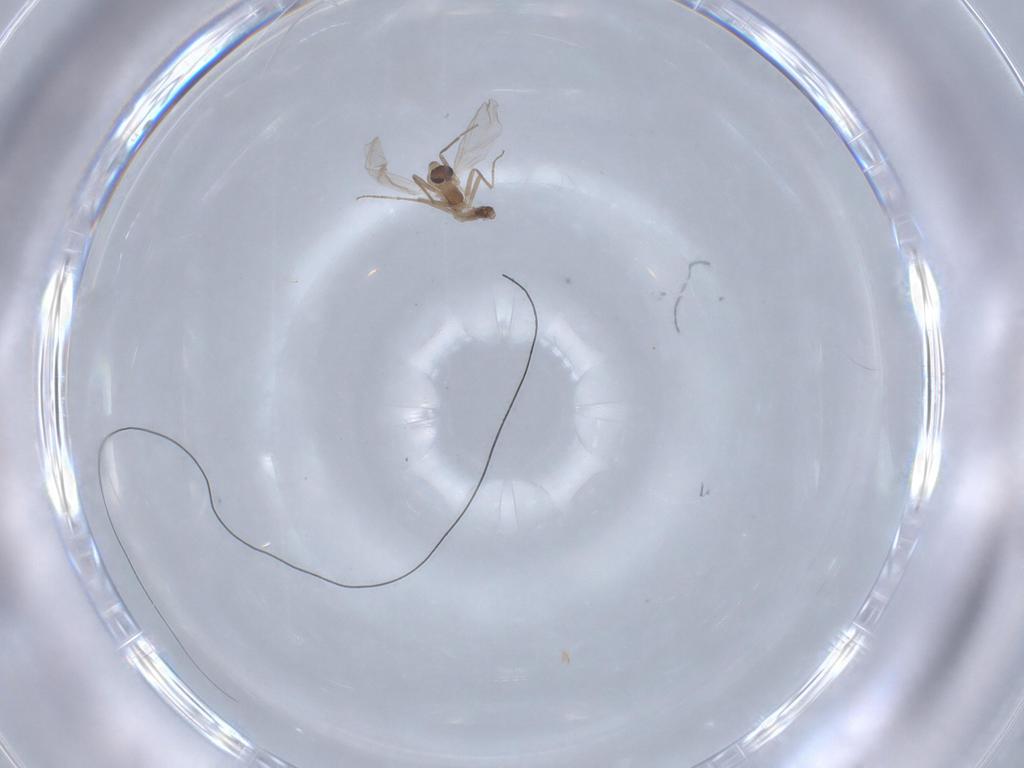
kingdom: Animalia
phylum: Arthropoda
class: Insecta
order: Diptera
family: Chironomidae
